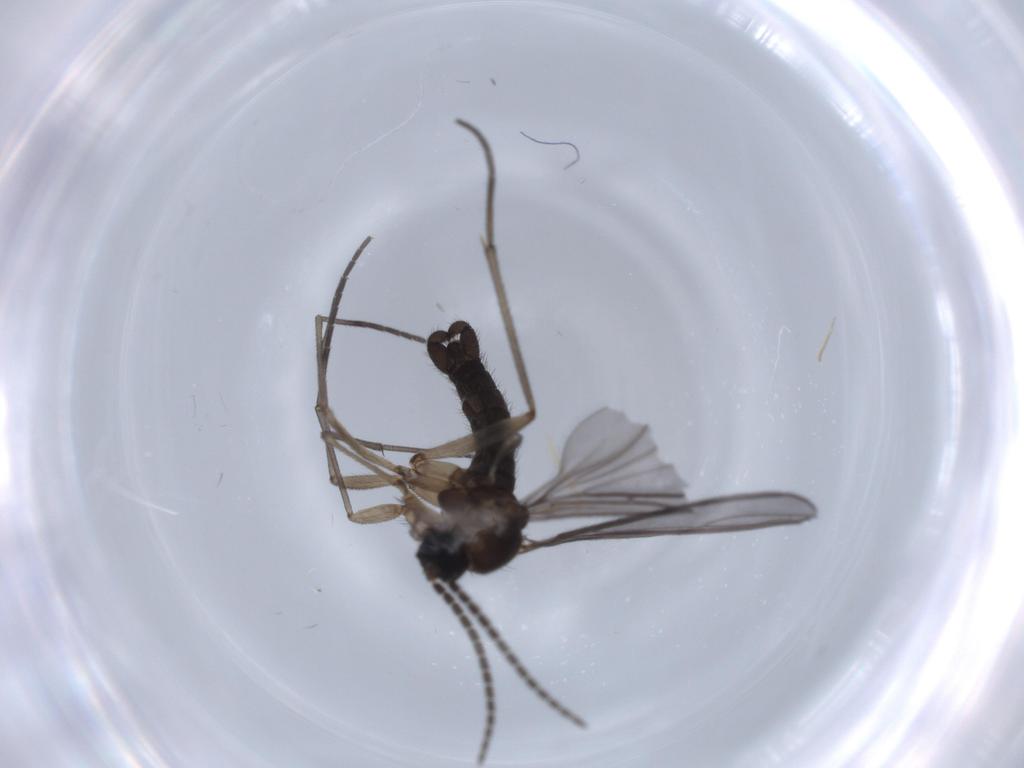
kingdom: Animalia
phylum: Arthropoda
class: Insecta
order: Diptera
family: Sciaridae
